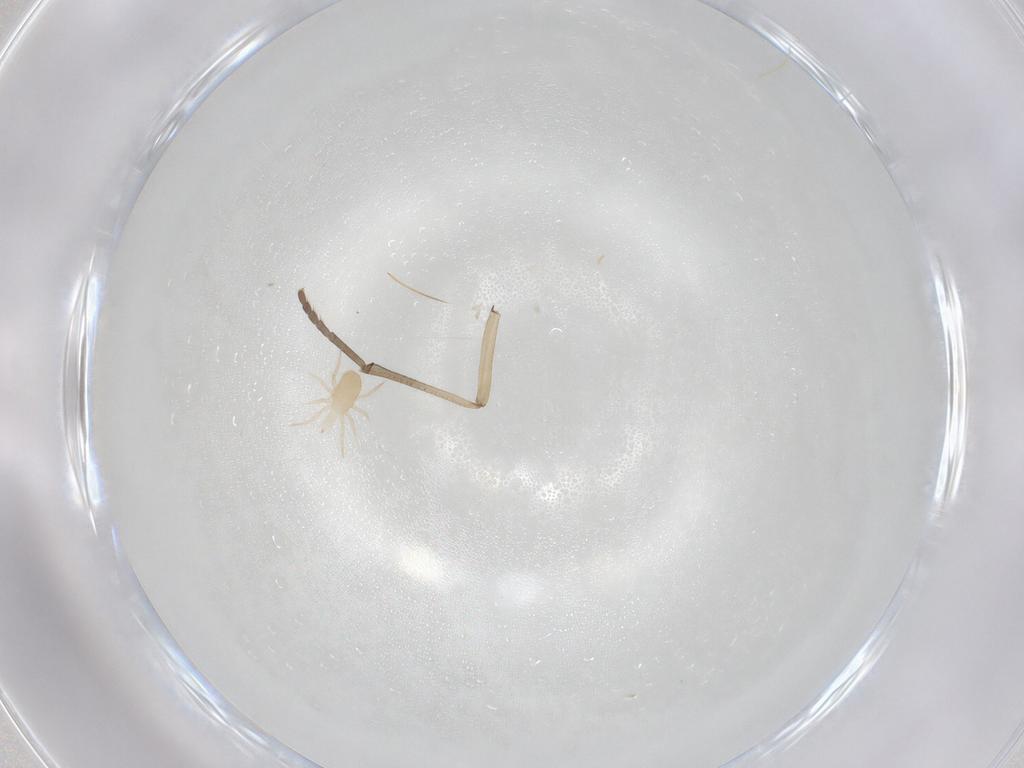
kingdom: Animalia
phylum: Arthropoda
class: Arachnida
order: Mesostigmata
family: Blattisociidae
